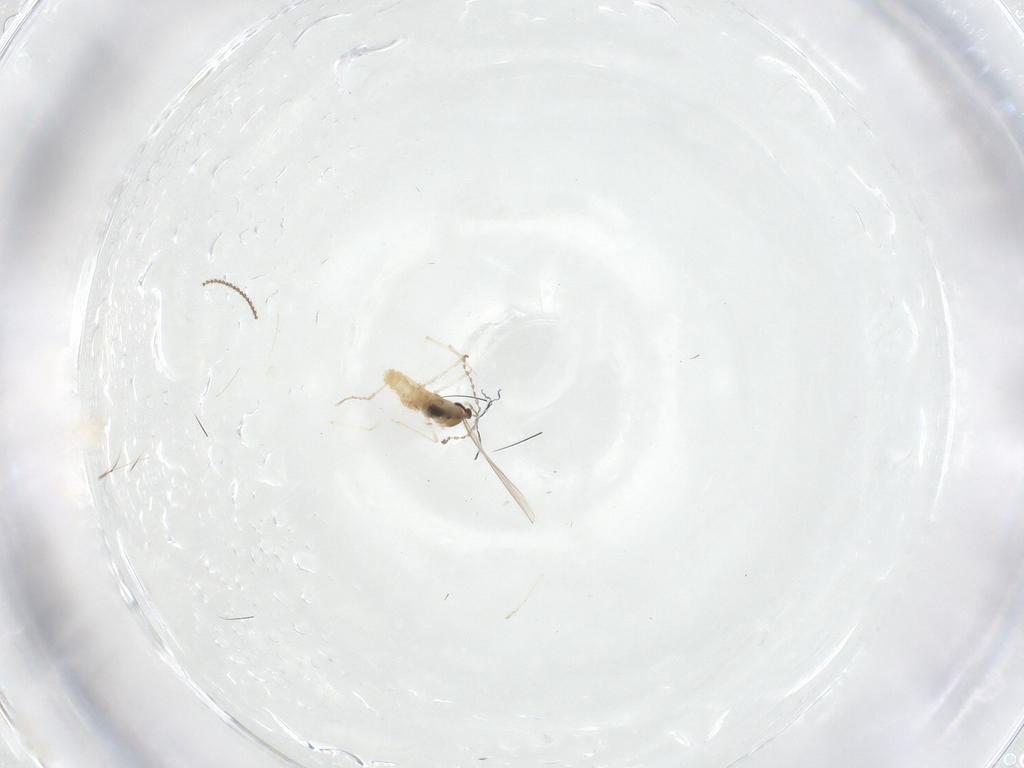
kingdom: Animalia
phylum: Arthropoda
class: Insecta
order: Diptera
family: Cecidomyiidae
